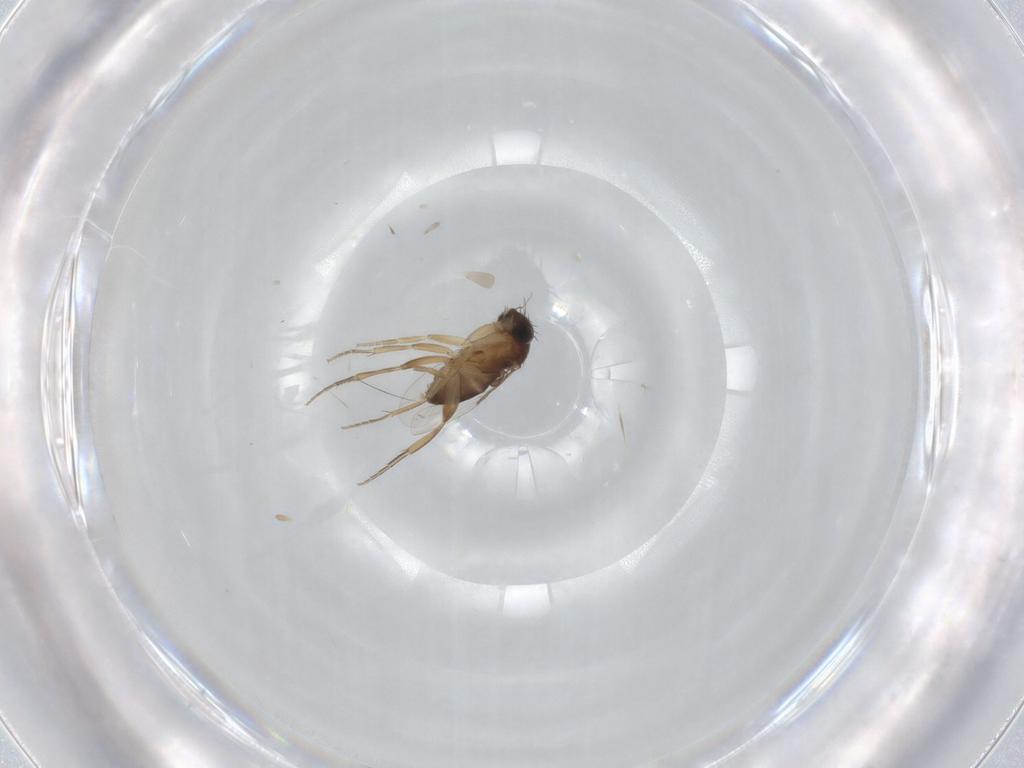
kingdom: Animalia
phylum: Arthropoda
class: Insecta
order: Diptera
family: Phoridae
